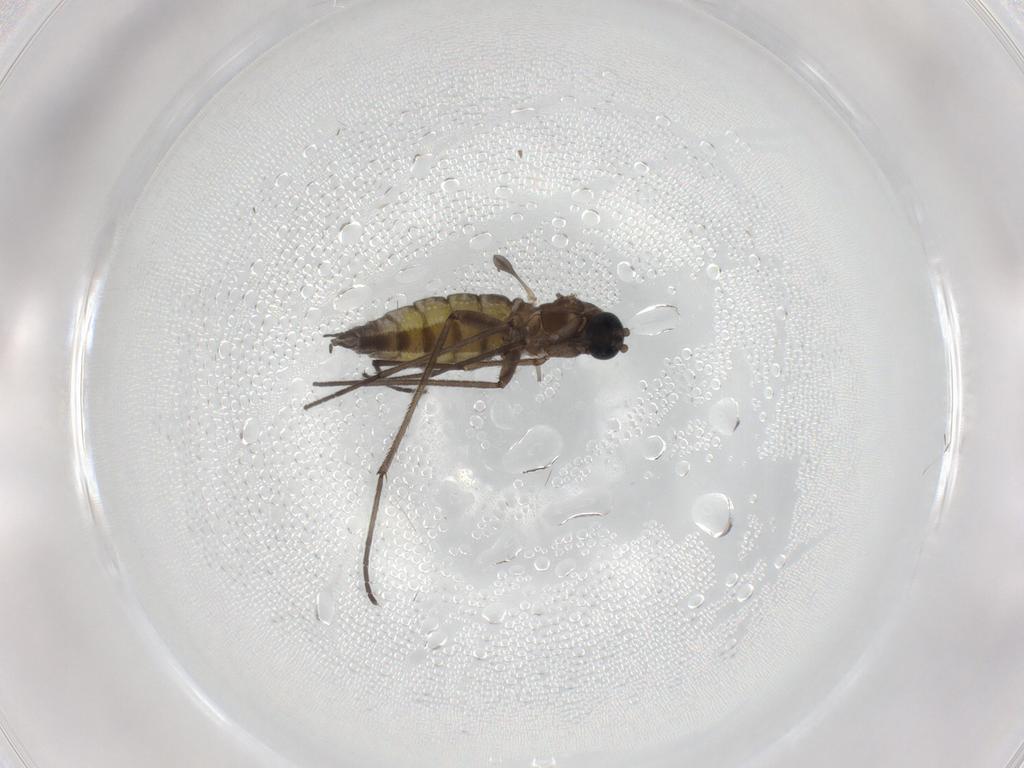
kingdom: Animalia
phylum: Arthropoda
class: Insecta
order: Diptera
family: Sciaridae
